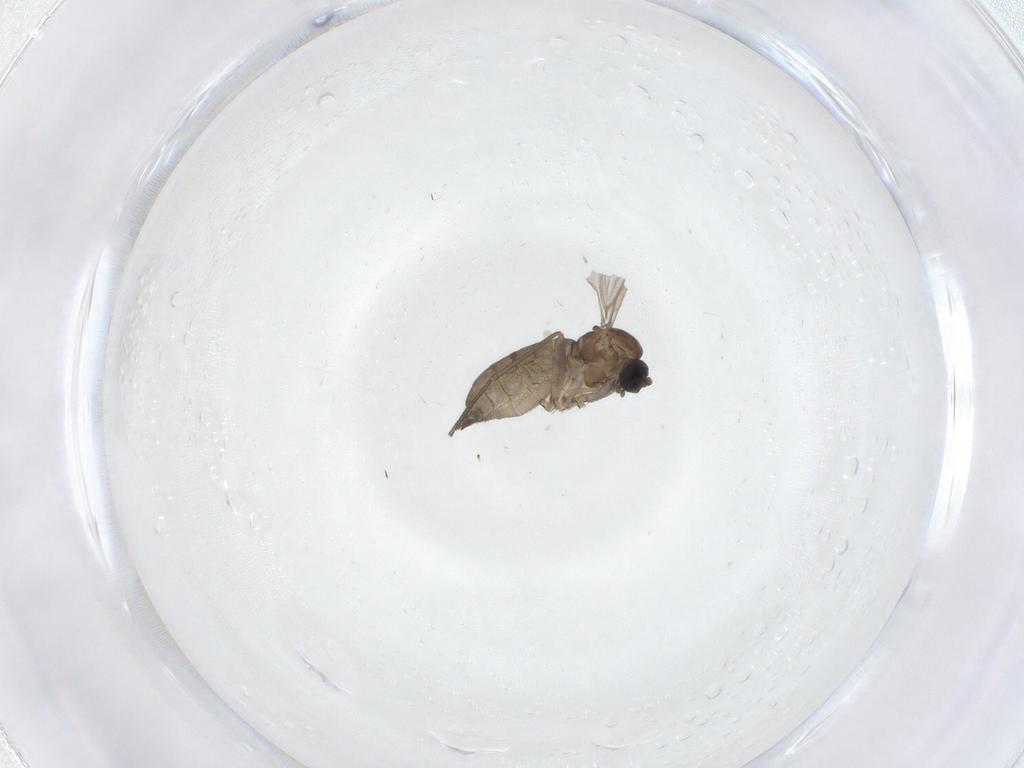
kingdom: Animalia
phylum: Arthropoda
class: Insecta
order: Diptera
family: Sciaridae
